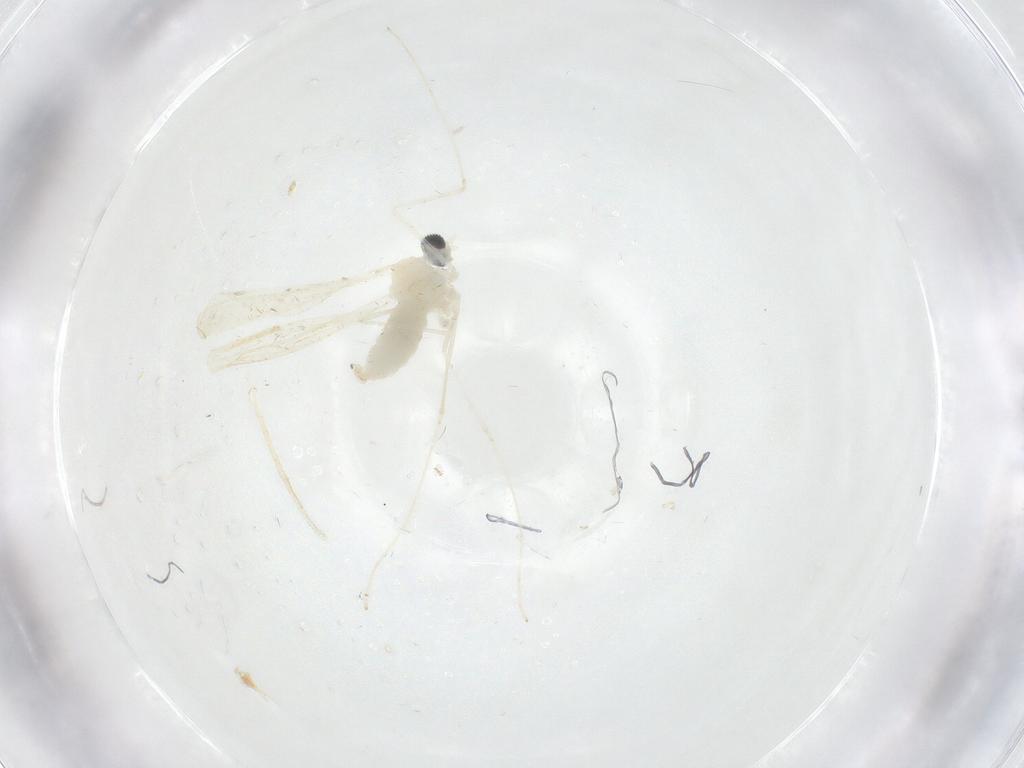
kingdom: Animalia
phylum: Arthropoda
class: Insecta
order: Diptera
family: Cecidomyiidae
